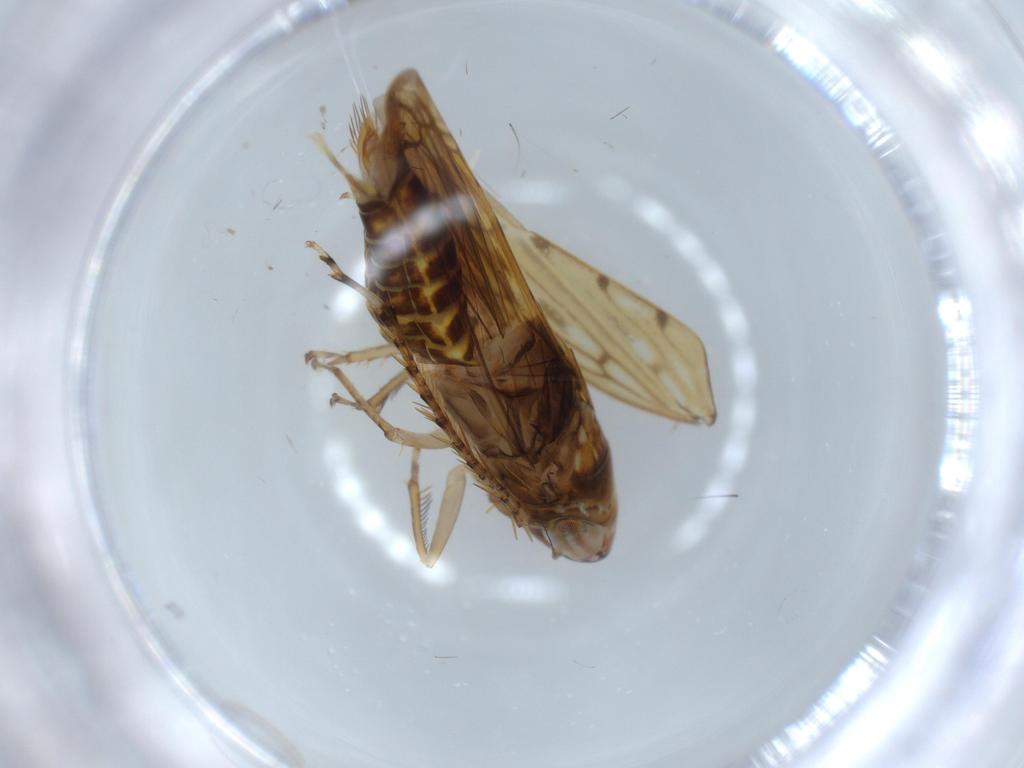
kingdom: Animalia
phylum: Arthropoda
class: Insecta
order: Hemiptera
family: Cicadellidae
